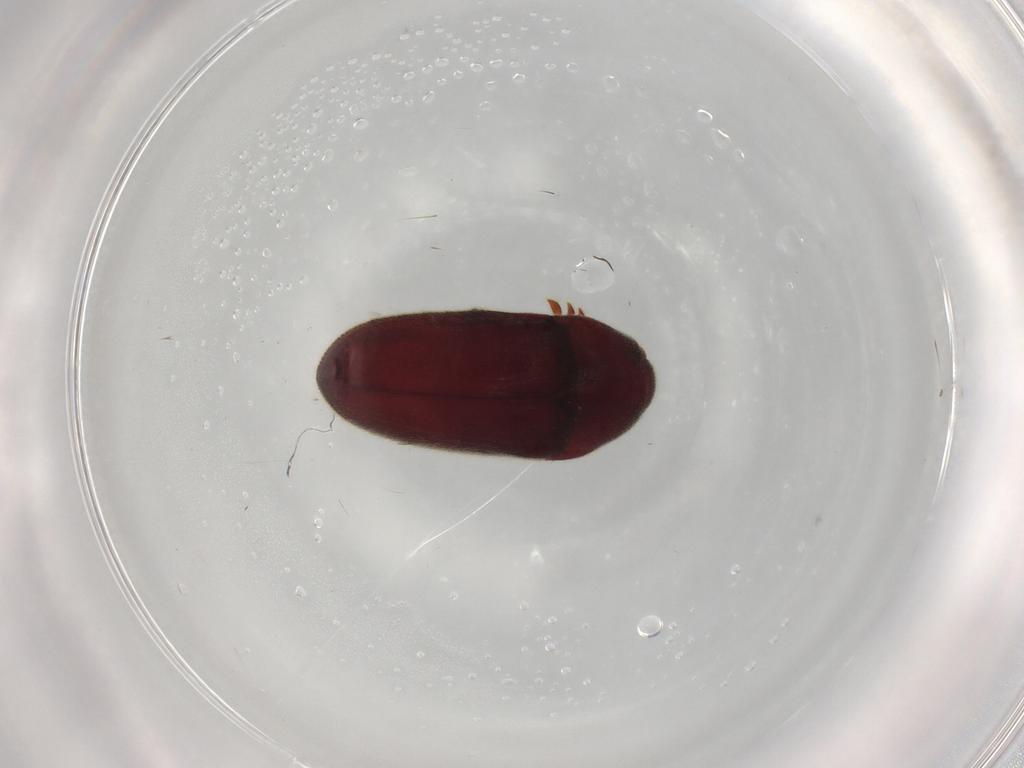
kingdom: Animalia
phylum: Arthropoda
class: Insecta
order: Coleoptera
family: Throscidae
